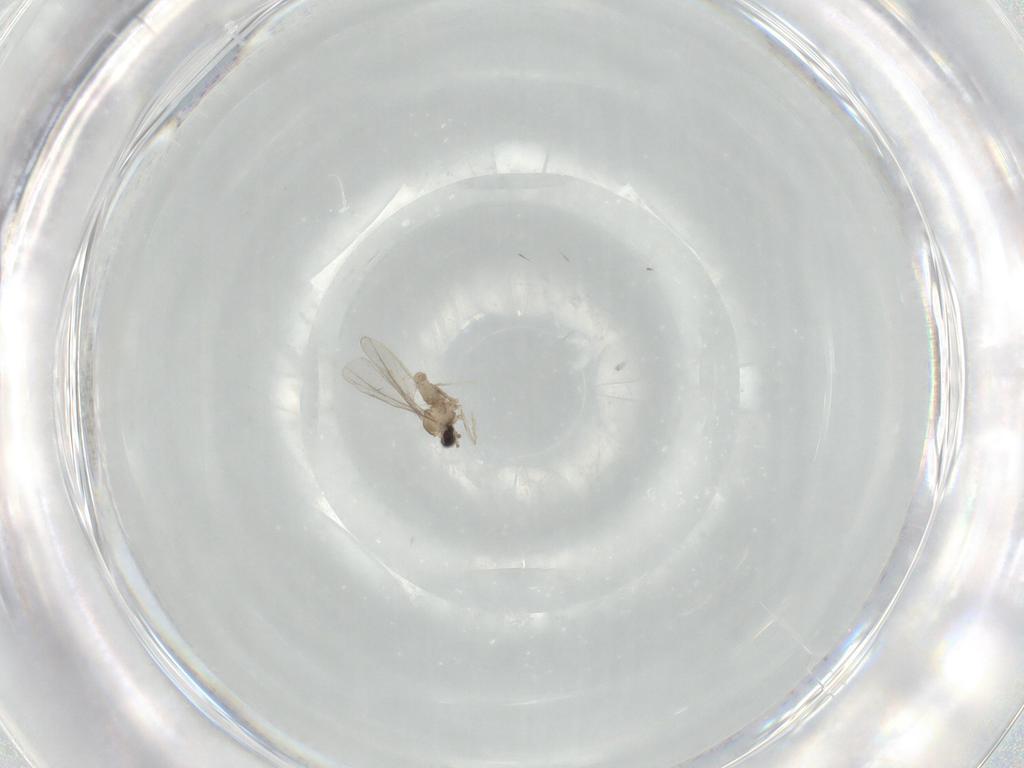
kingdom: Animalia
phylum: Arthropoda
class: Insecta
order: Diptera
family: Cecidomyiidae
